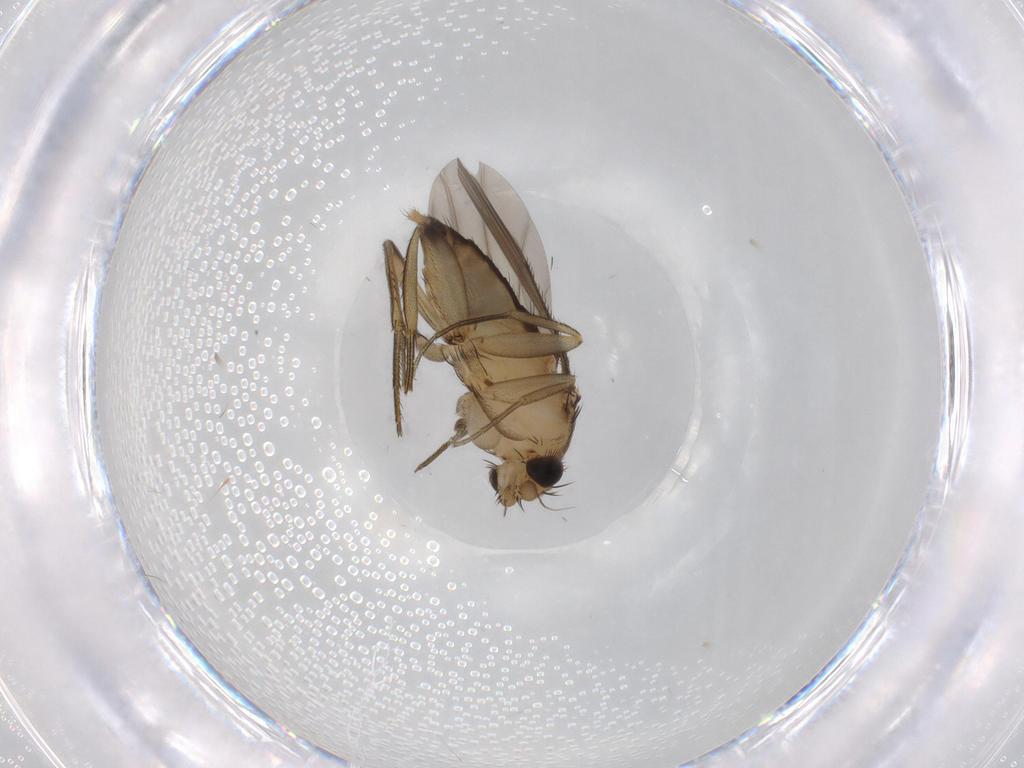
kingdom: Animalia
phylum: Arthropoda
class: Insecta
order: Diptera
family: Phoridae
